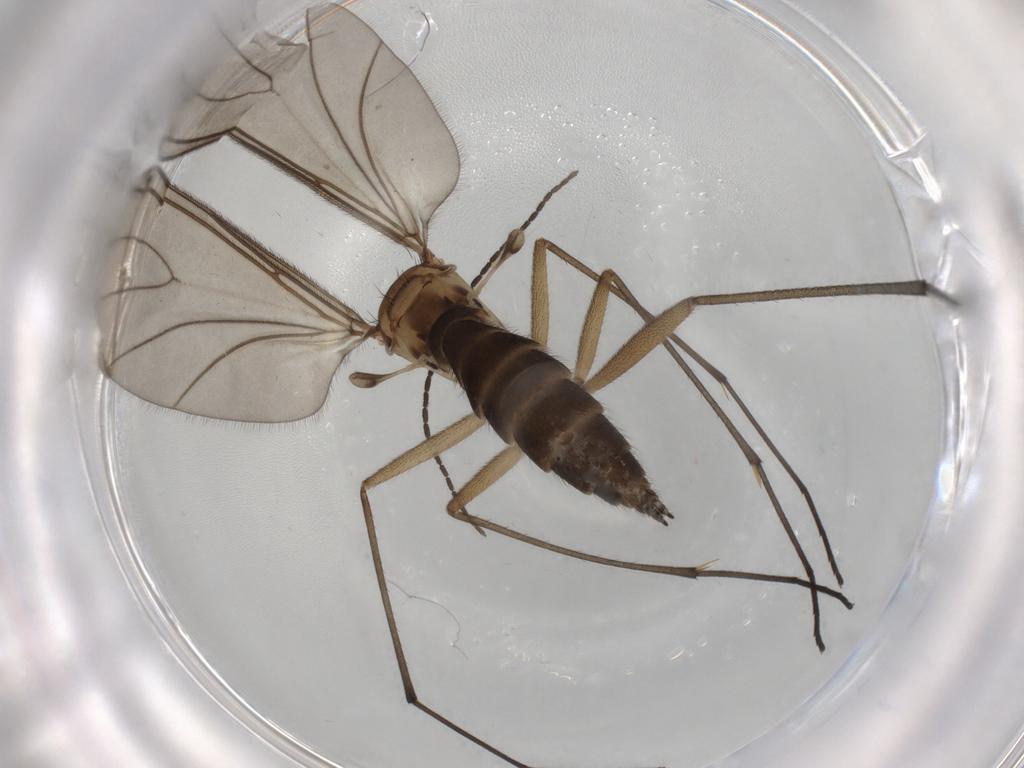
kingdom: Animalia
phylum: Arthropoda
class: Insecta
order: Diptera
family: Sciaridae
